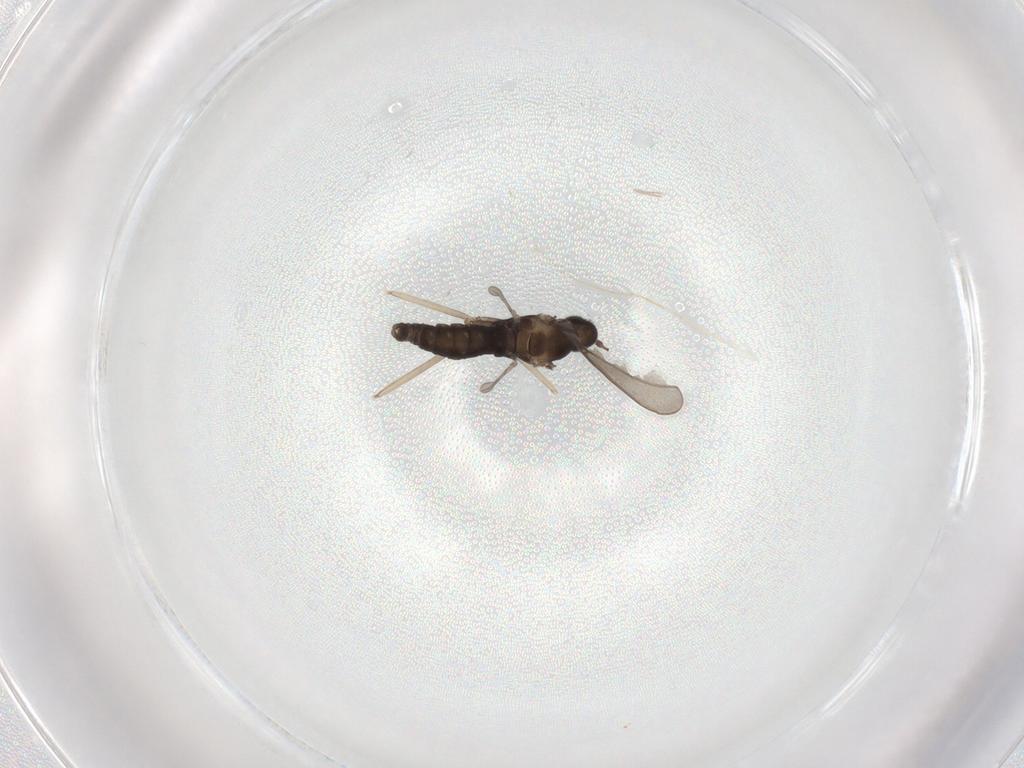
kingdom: Animalia
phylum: Arthropoda
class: Insecta
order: Diptera
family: Cecidomyiidae
